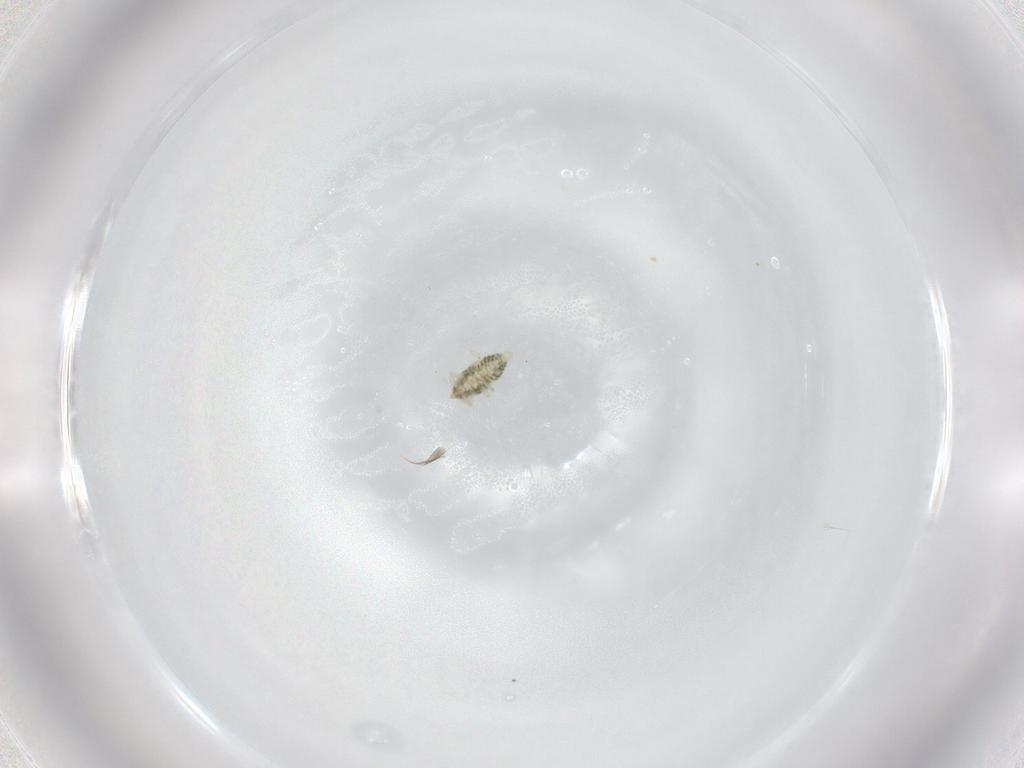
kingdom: Animalia
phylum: Arthropoda
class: Insecta
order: Neuroptera
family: Coniopterygidae
